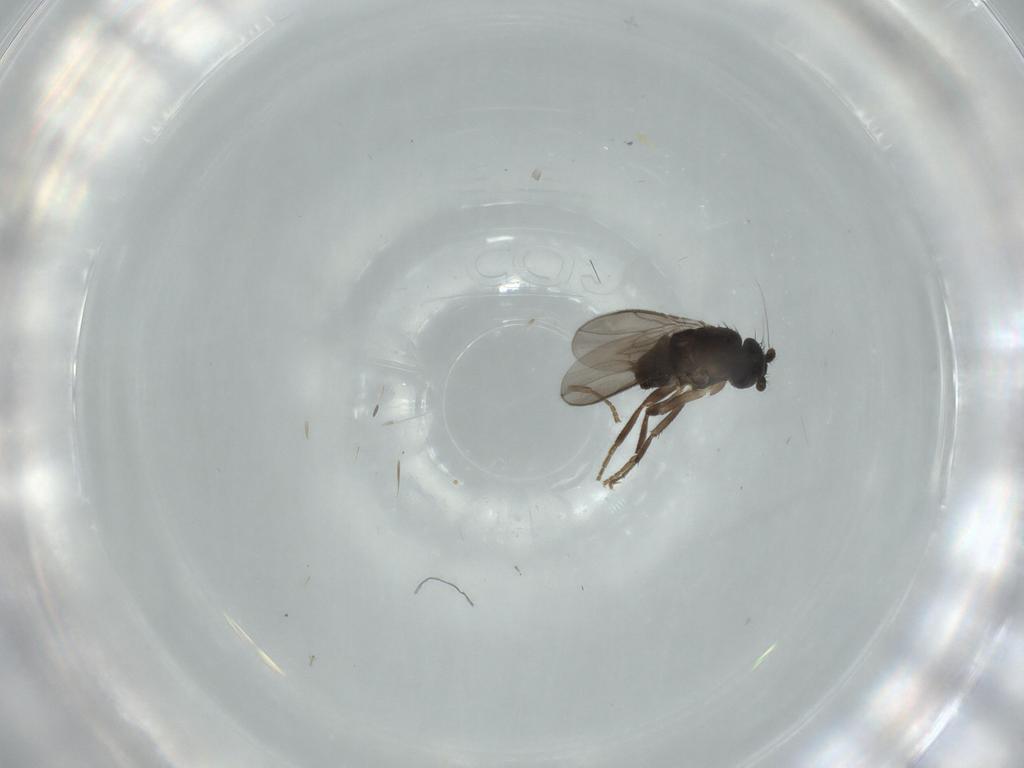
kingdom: Animalia
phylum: Arthropoda
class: Insecta
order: Diptera
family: Sphaeroceridae
